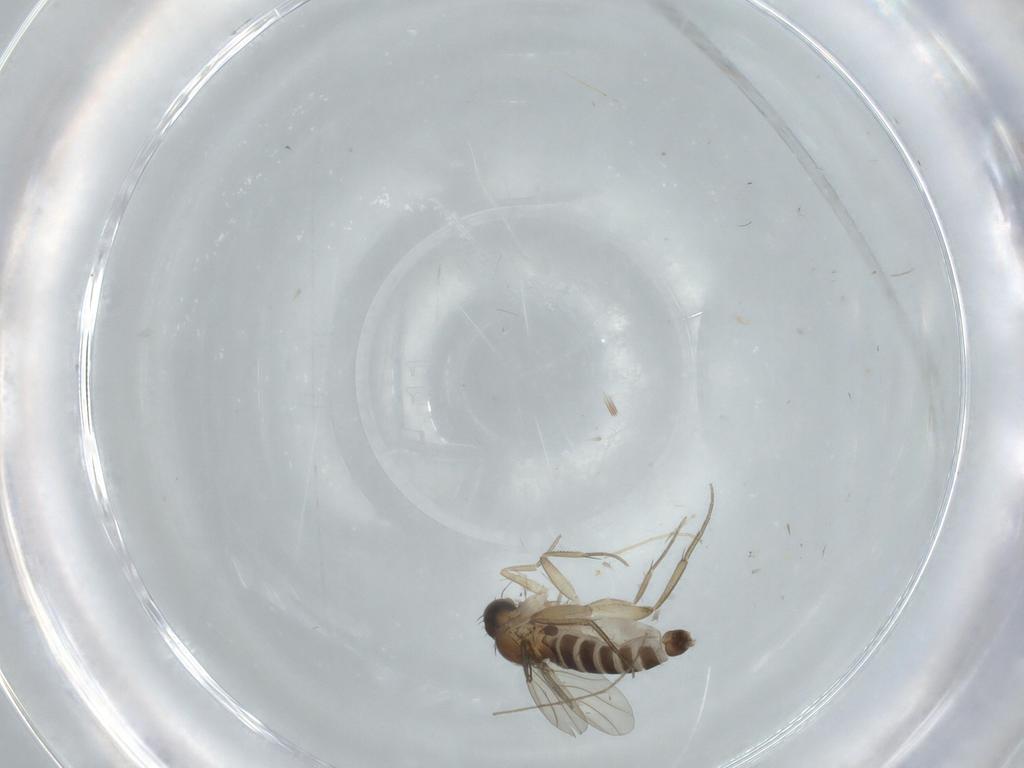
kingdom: Animalia
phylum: Arthropoda
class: Insecta
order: Diptera
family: Phoridae
